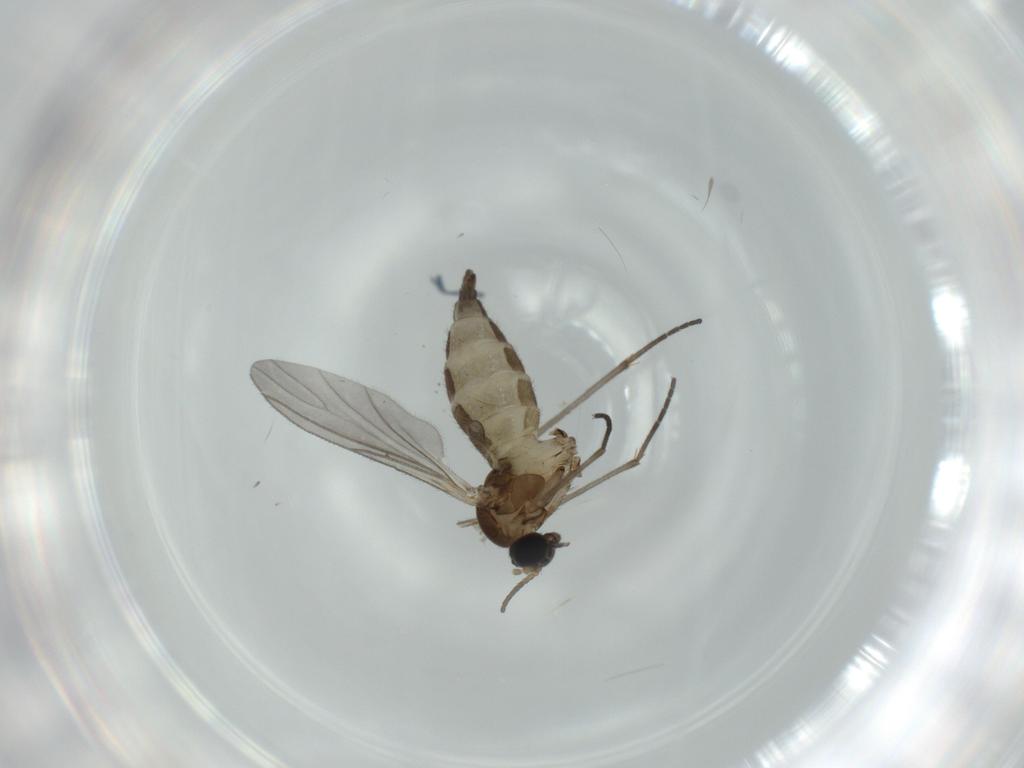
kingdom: Animalia
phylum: Arthropoda
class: Insecta
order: Diptera
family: Sciaridae
